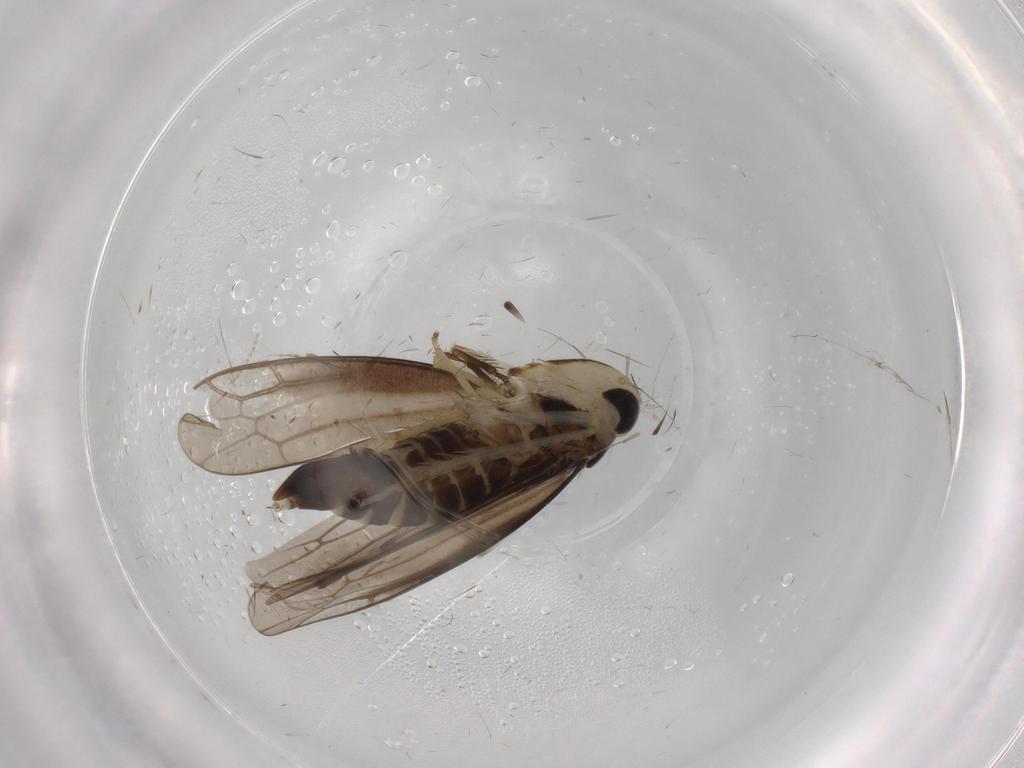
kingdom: Animalia
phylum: Arthropoda
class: Insecta
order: Hemiptera
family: Cicadellidae
